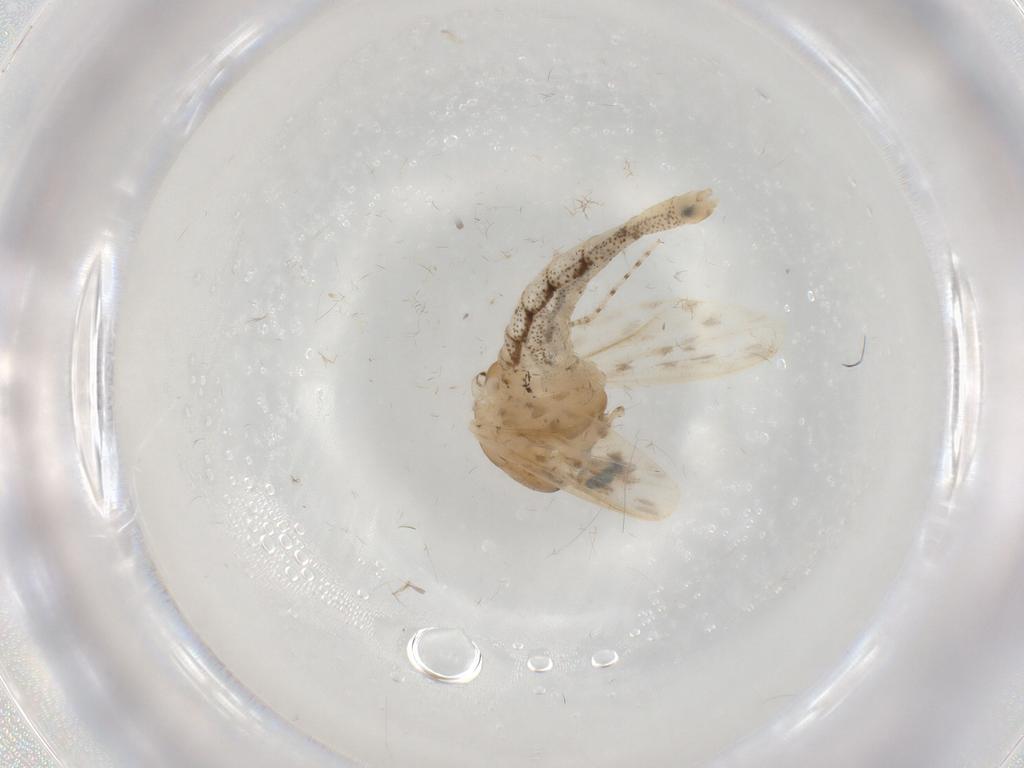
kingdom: Animalia
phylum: Arthropoda
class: Insecta
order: Diptera
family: Chaoboridae
